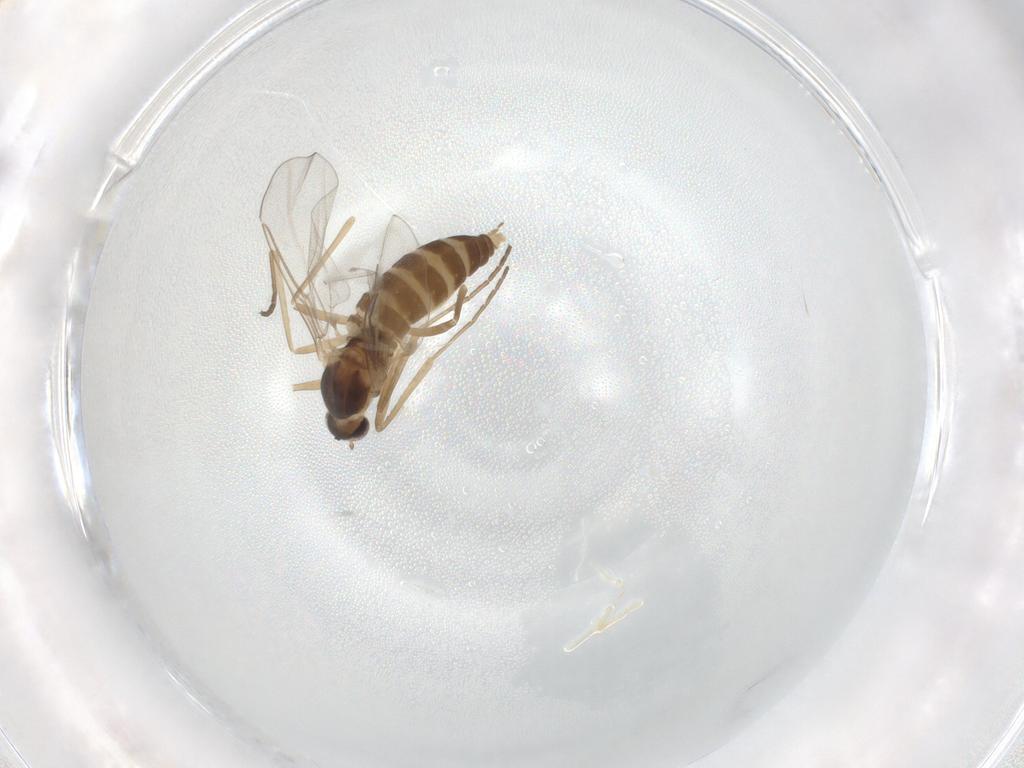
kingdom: Animalia
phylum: Arthropoda
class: Insecta
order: Diptera
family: Cecidomyiidae
